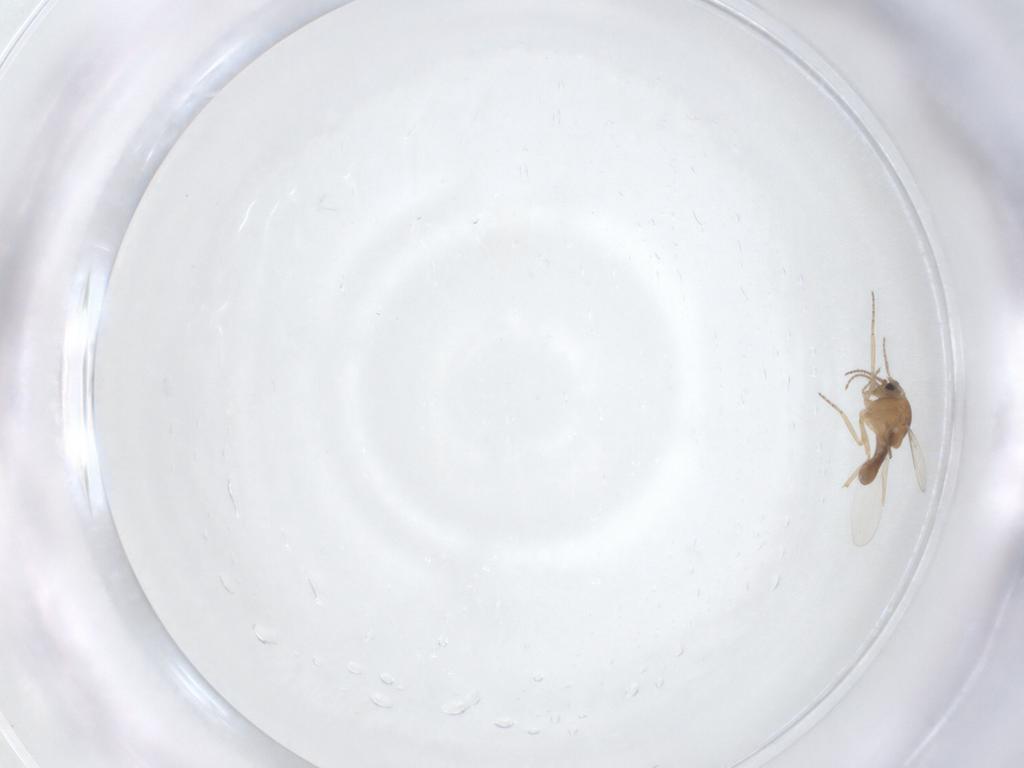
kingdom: Animalia
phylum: Arthropoda
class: Insecta
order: Diptera
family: Ceratopogonidae
